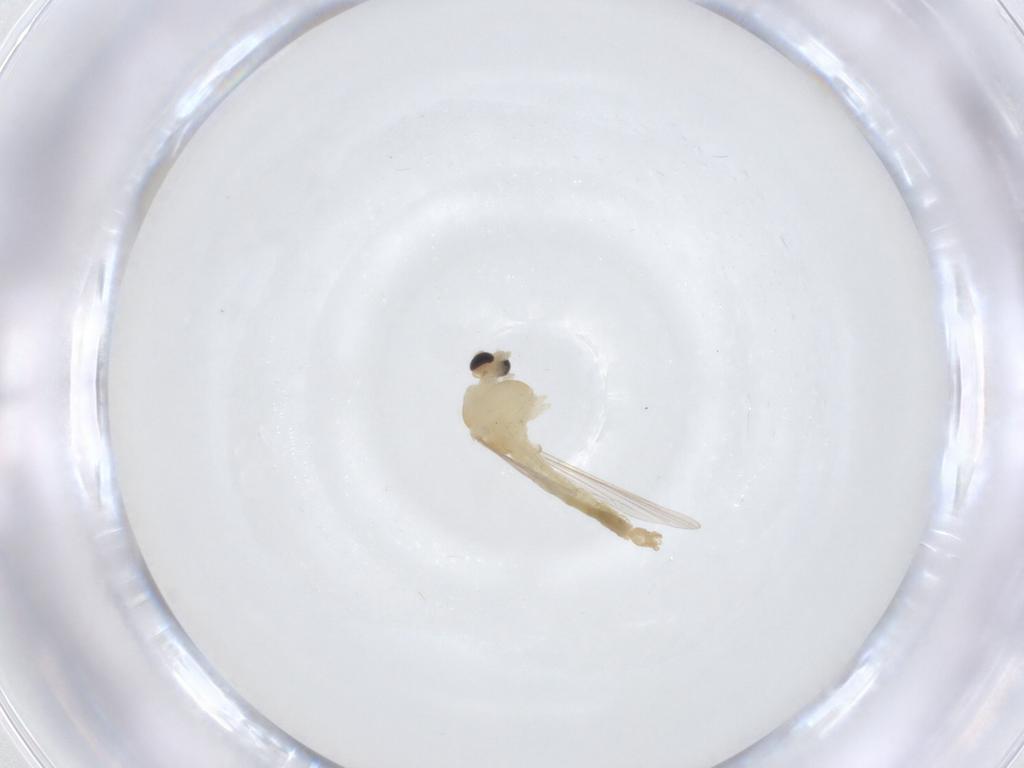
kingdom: Animalia
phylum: Arthropoda
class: Insecta
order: Diptera
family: Chironomidae
